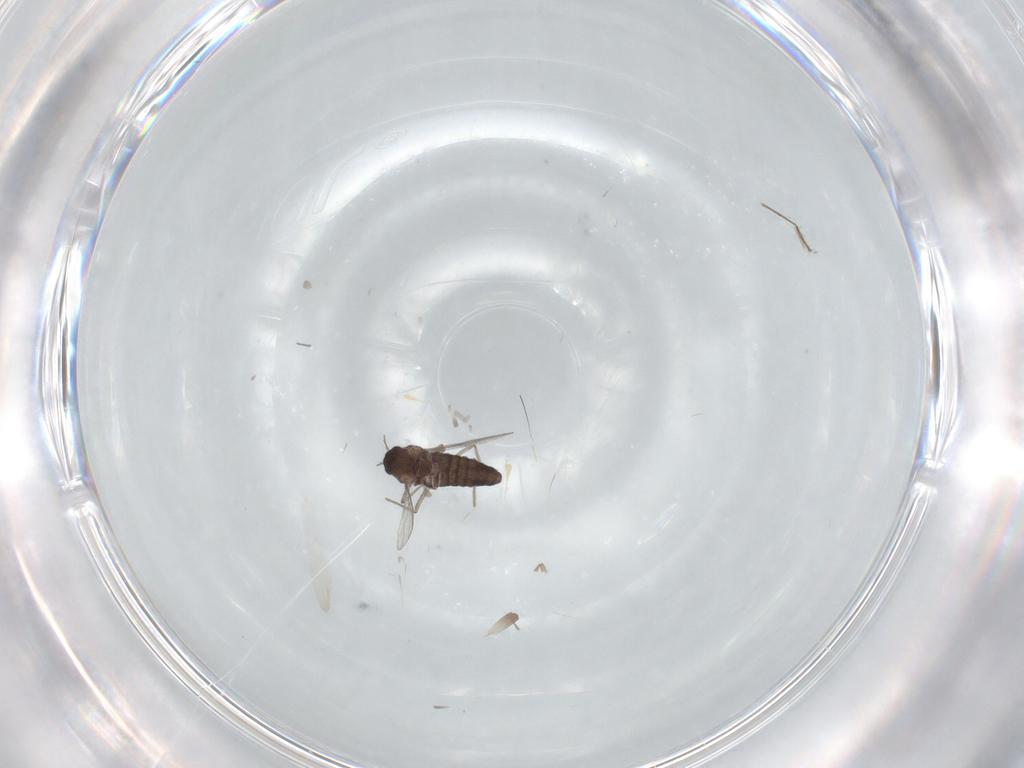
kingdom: Animalia
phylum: Arthropoda
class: Insecta
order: Diptera
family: Chironomidae
